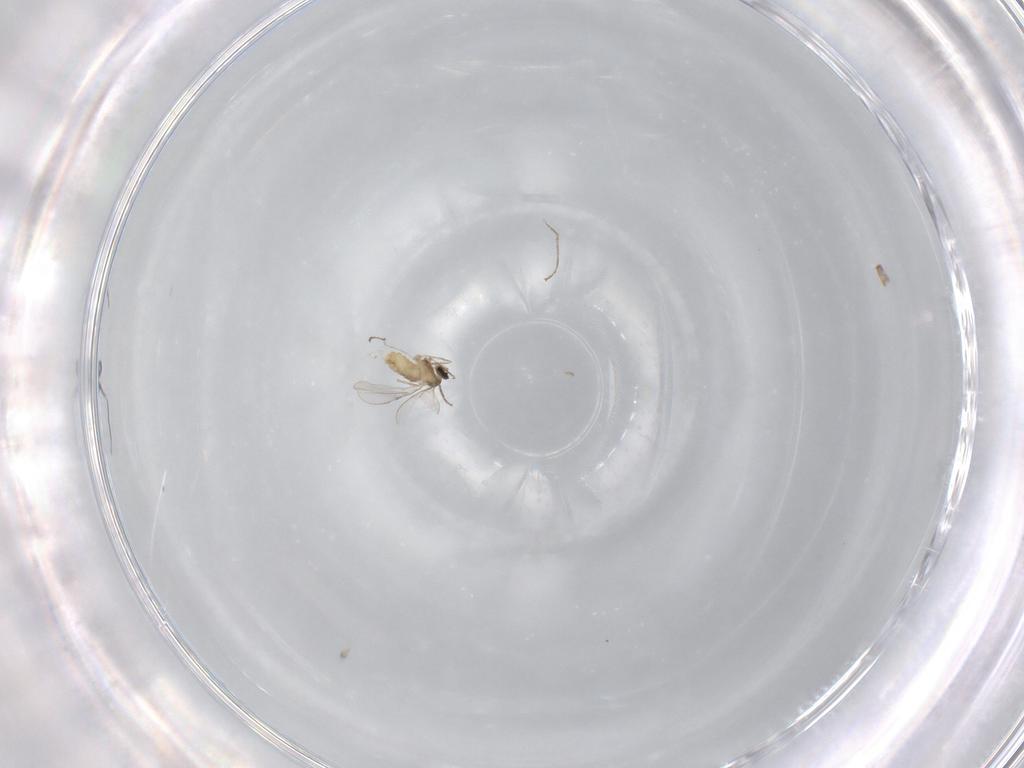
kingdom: Animalia
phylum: Arthropoda
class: Insecta
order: Diptera
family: Cecidomyiidae
